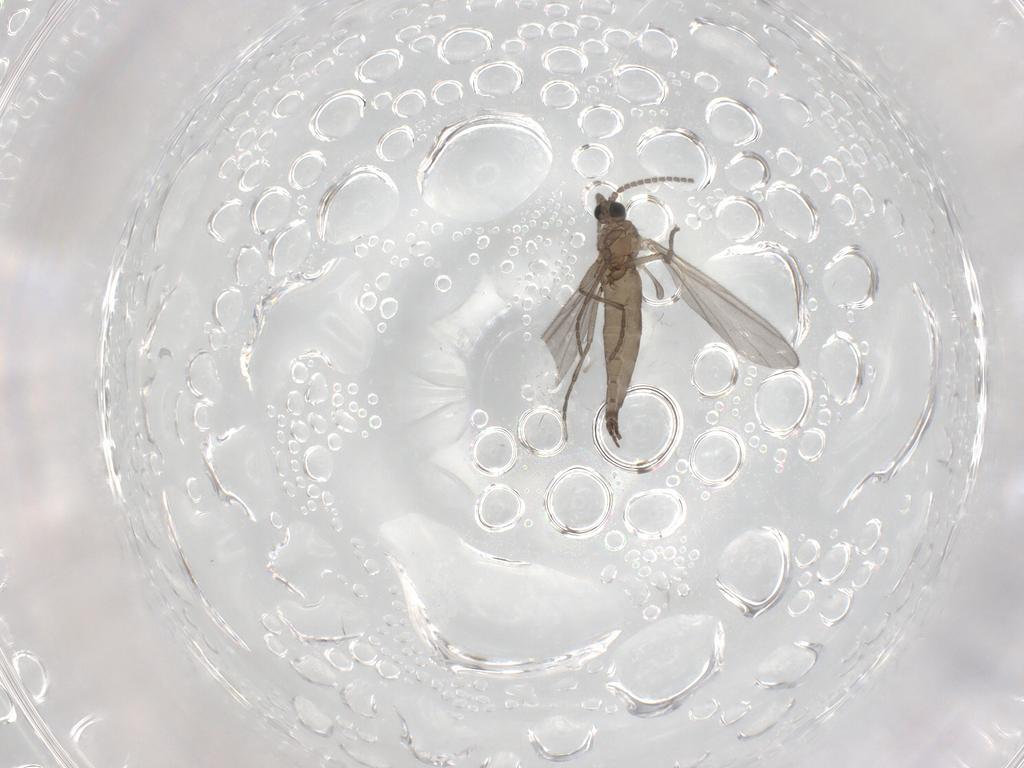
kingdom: Animalia
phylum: Arthropoda
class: Insecta
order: Diptera
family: Sciaridae
